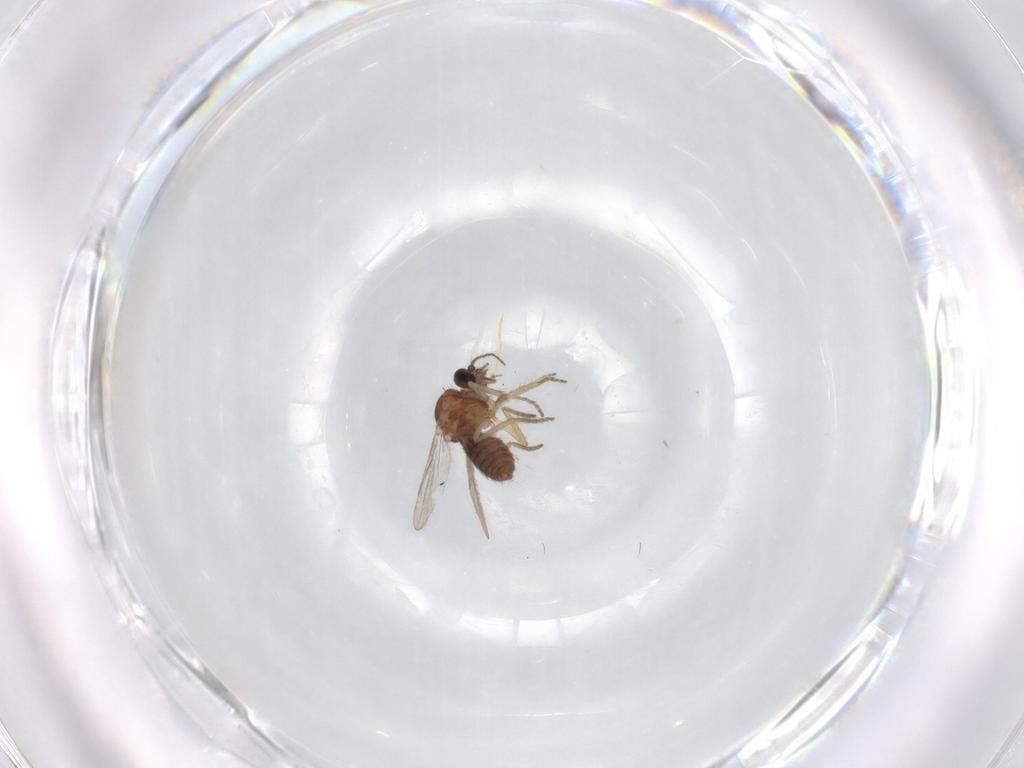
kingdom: Animalia
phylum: Arthropoda
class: Insecta
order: Diptera
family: Ceratopogonidae
